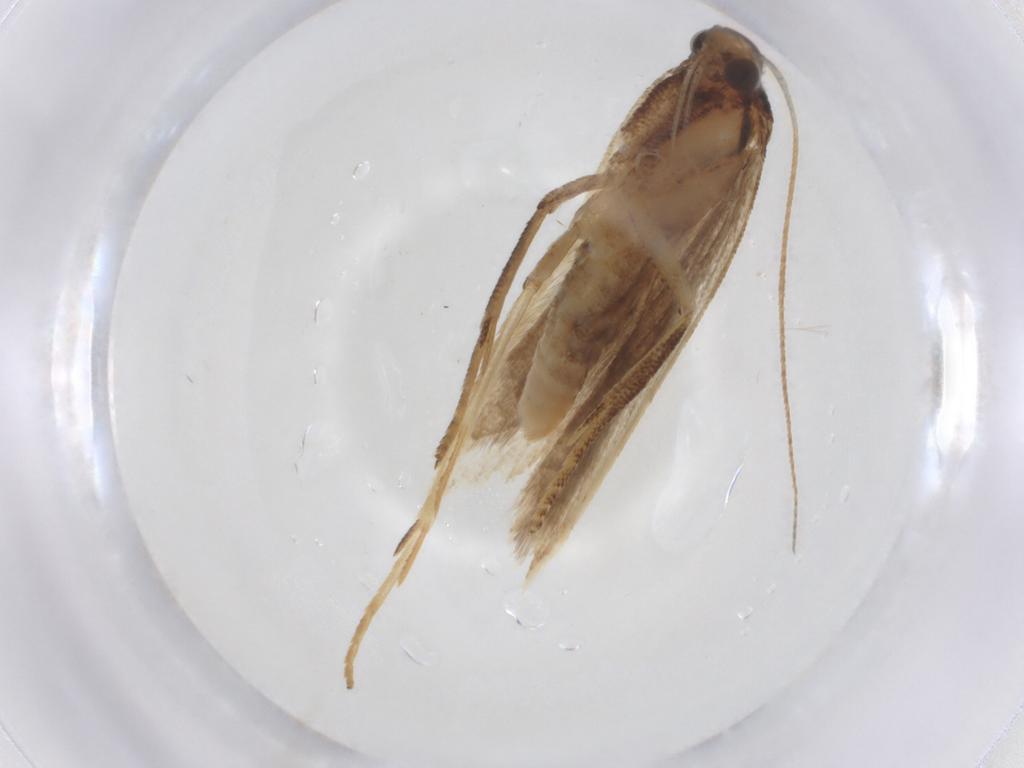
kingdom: Animalia
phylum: Arthropoda
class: Insecta
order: Lepidoptera
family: Gelechiidae
